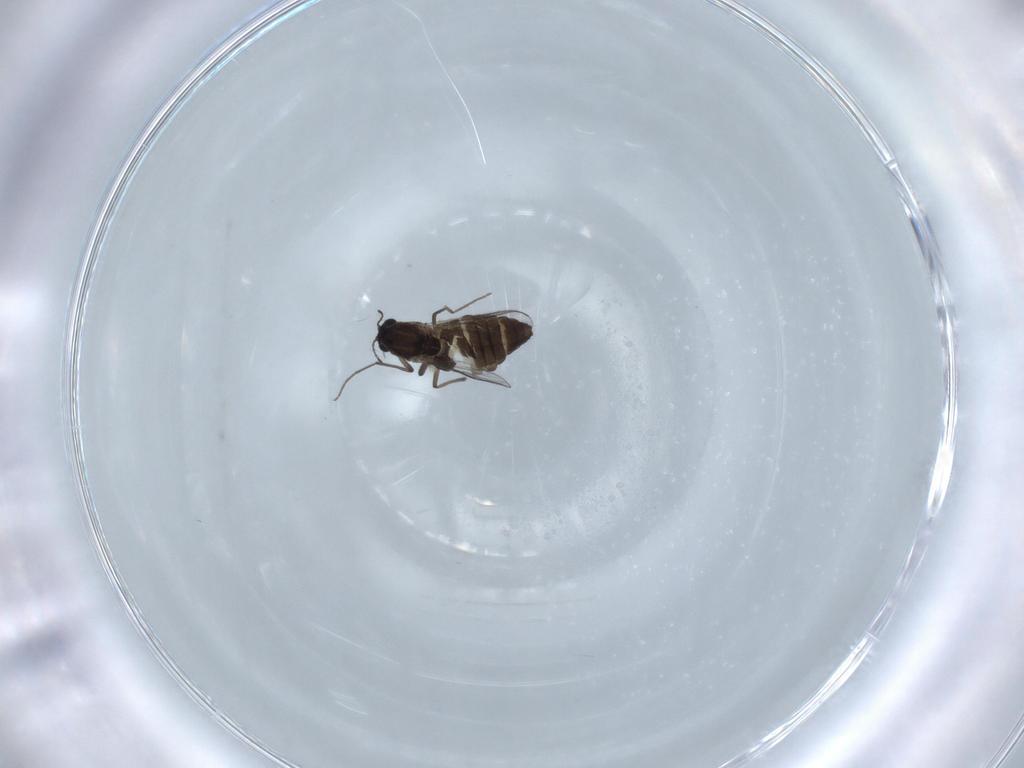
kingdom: Animalia
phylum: Arthropoda
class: Insecta
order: Diptera
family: Chironomidae
